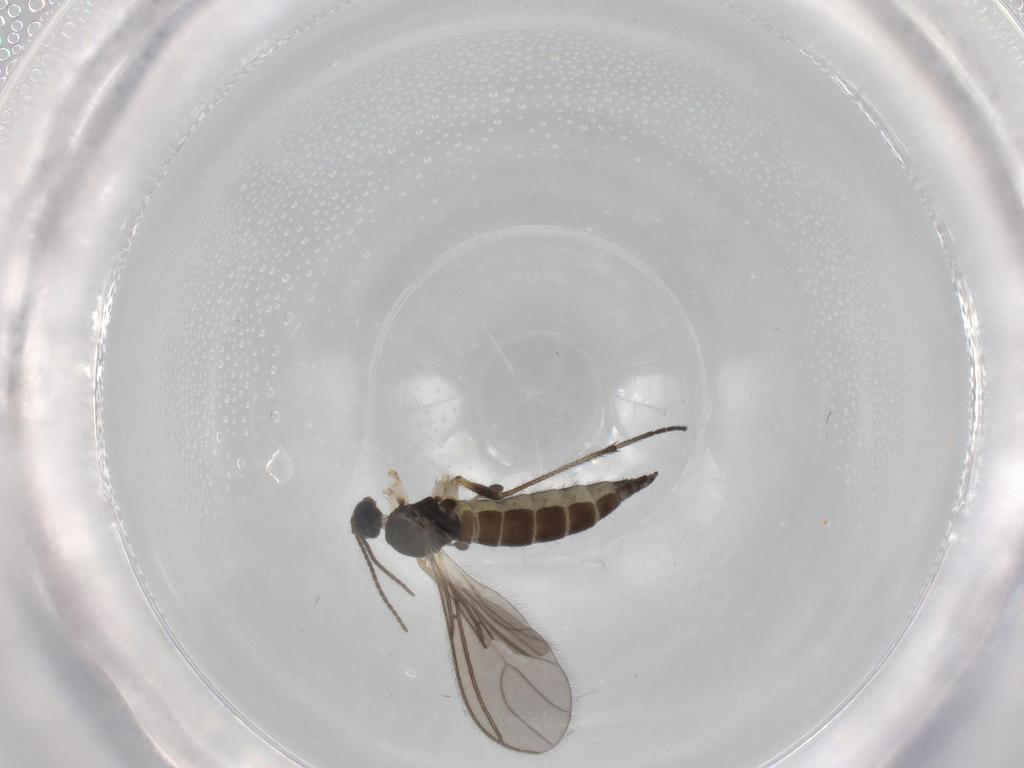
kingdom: Animalia
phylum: Arthropoda
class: Insecta
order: Diptera
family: Sciaridae
